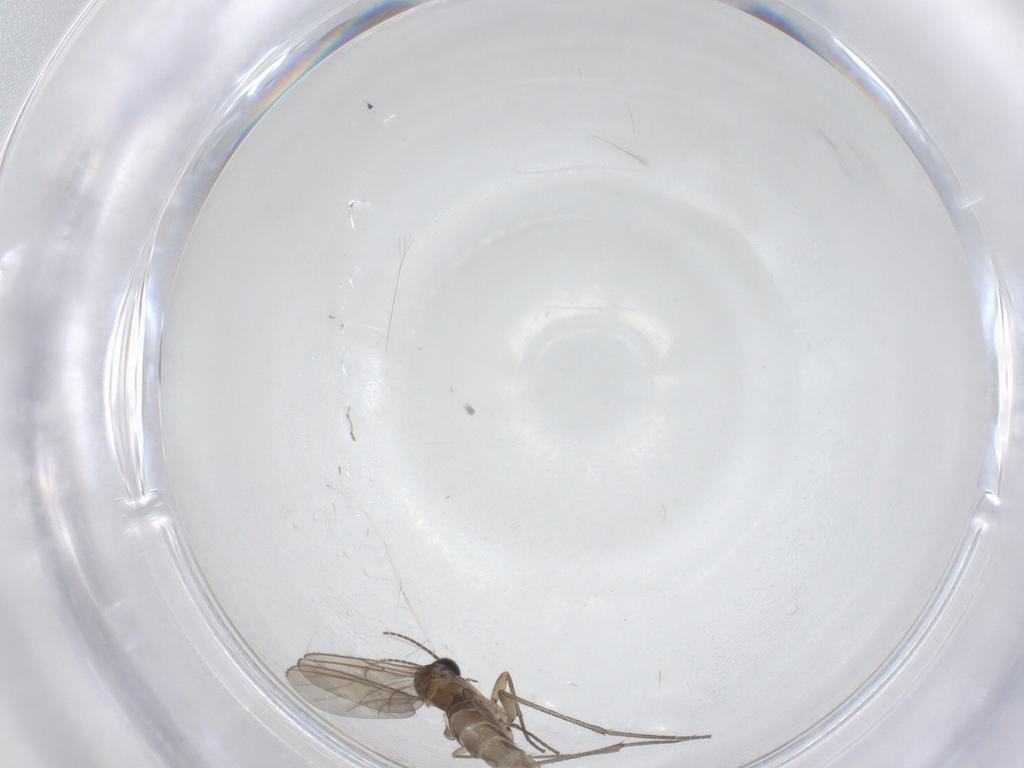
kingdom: Animalia
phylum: Arthropoda
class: Insecta
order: Diptera
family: Sciaridae
